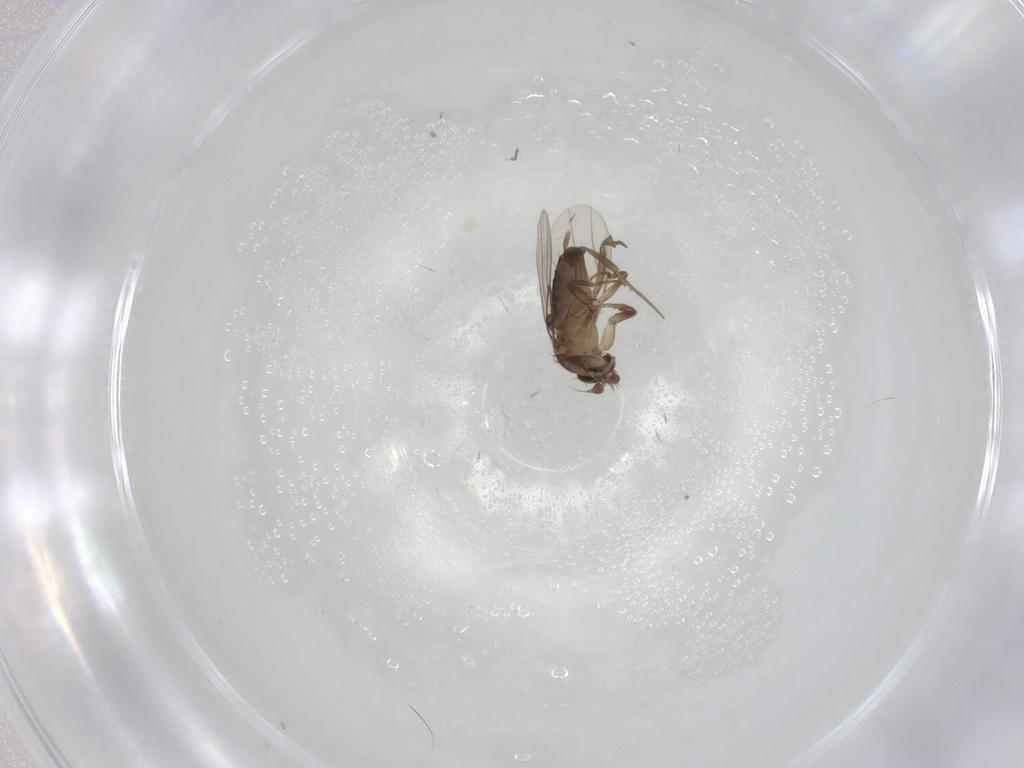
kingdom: Animalia
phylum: Arthropoda
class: Insecta
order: Diptera
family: Phoridae
